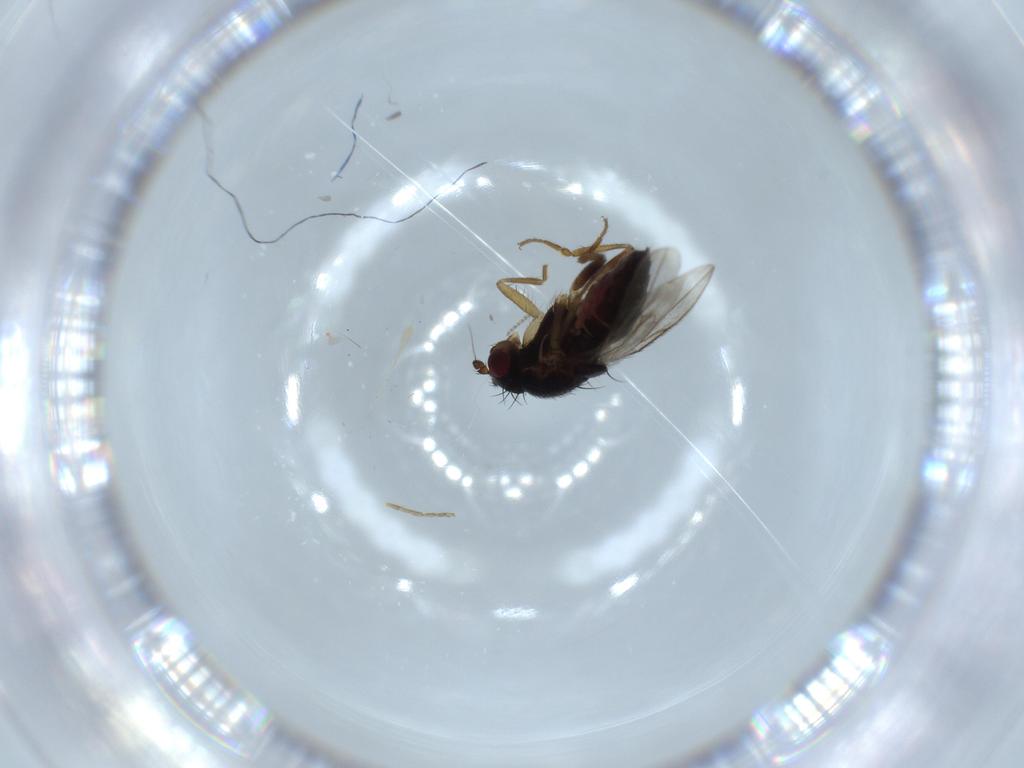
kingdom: Animalia
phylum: Arthropoda
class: Insecta
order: Diptera
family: Sphaeroceridae
